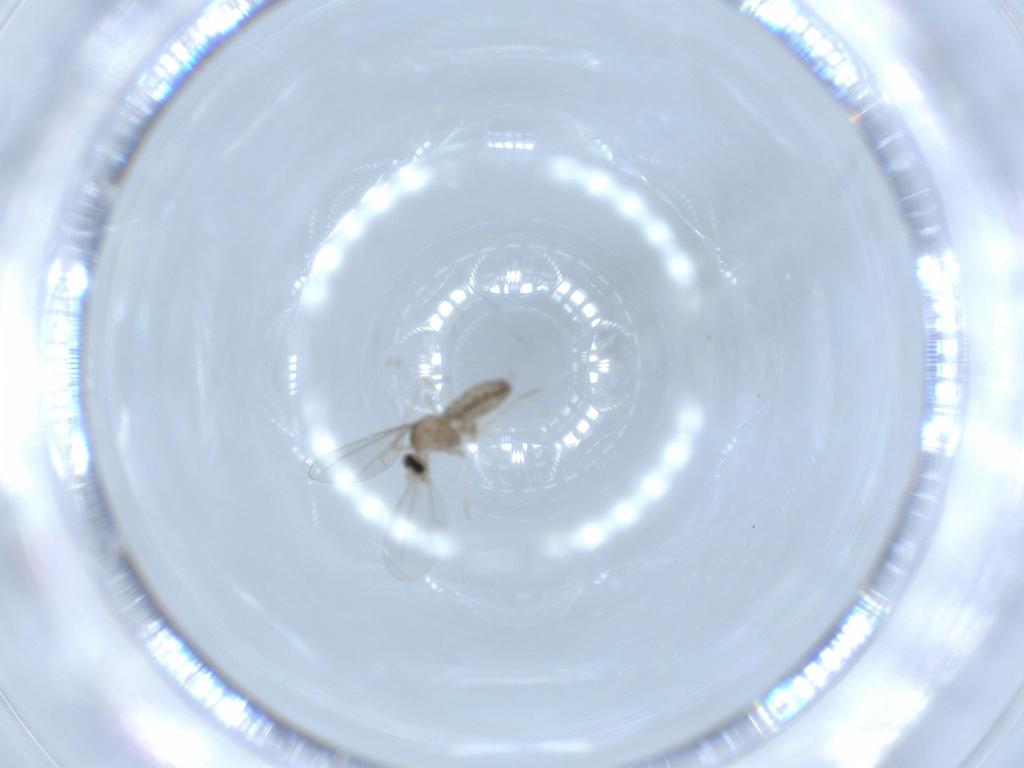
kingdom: Animalia
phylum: Arthropoda
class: Insecta
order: Diptera
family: Cecidomyiidae
